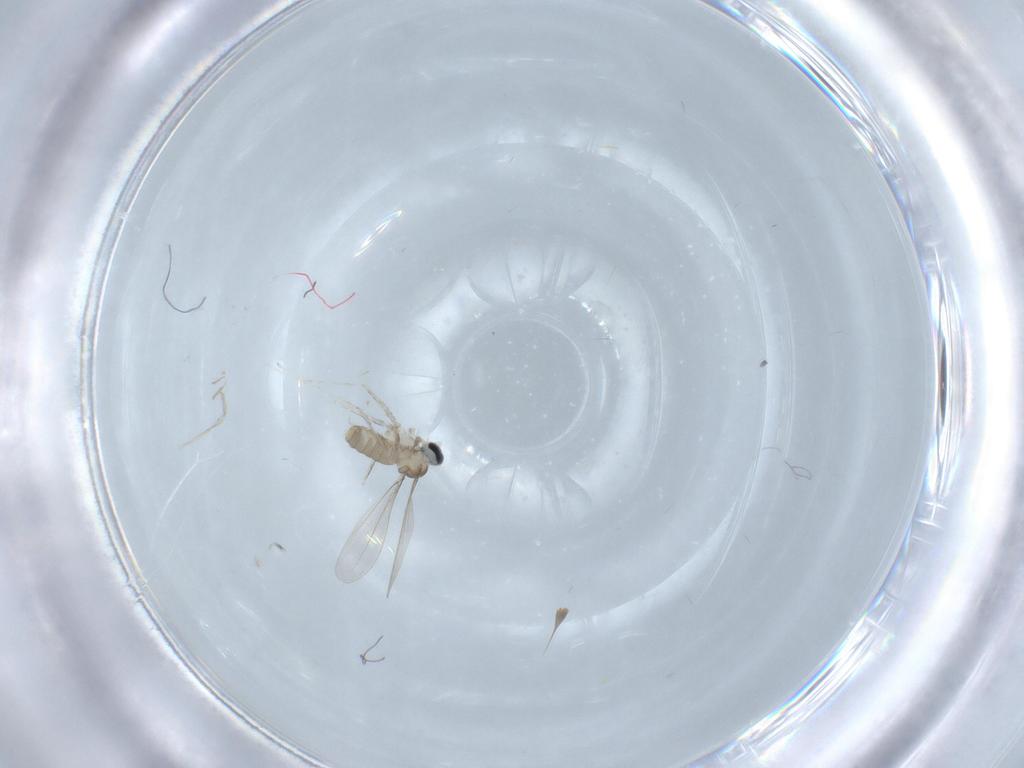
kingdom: Animalia
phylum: Arthropoda
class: Insecta
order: Diptera
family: Cecidomyiidae
